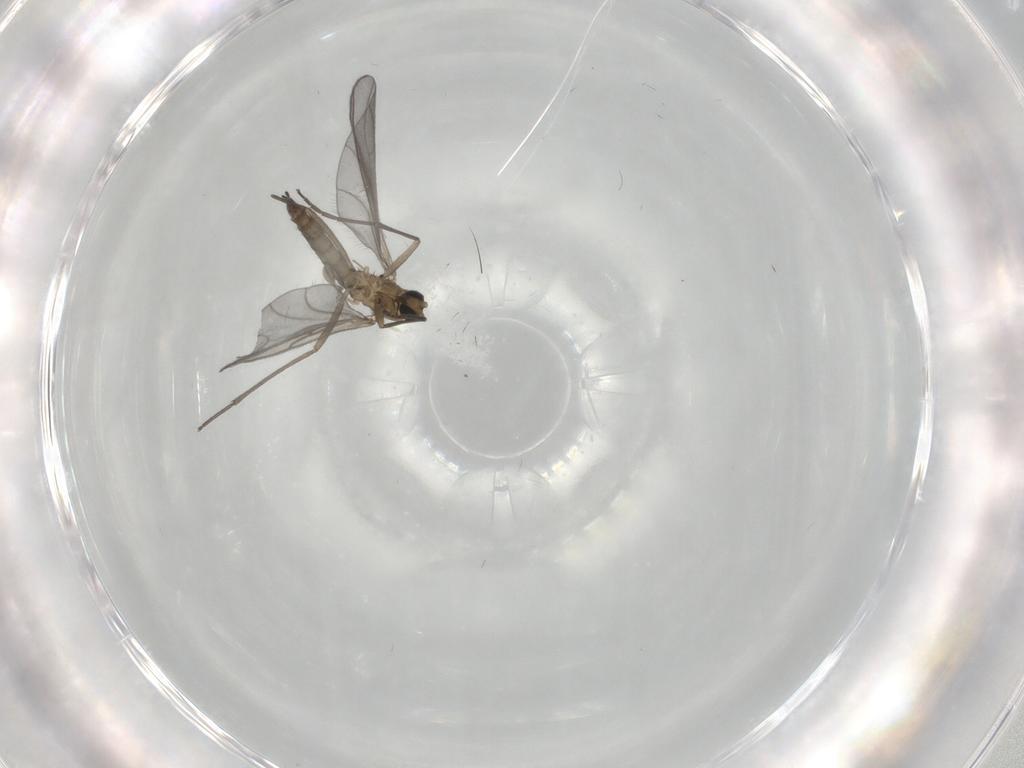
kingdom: Animalia
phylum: Arthropoda
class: Insecta
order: Diptera
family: Sciaridae
